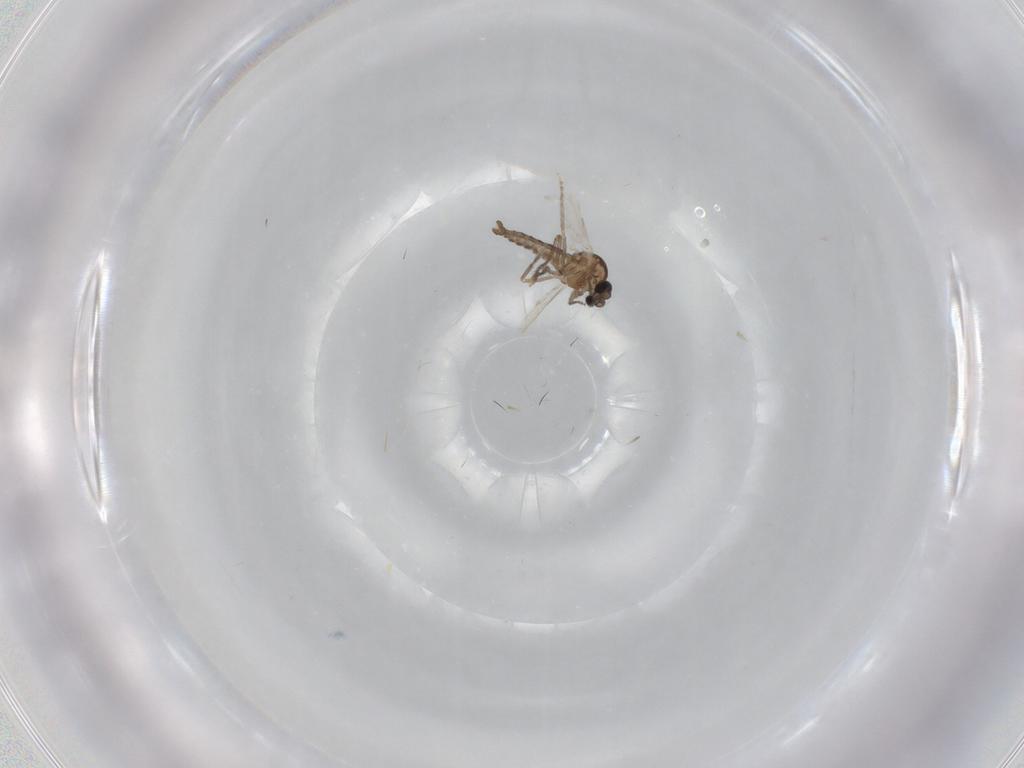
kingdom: Animalia
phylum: Arthropoda
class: Insecta
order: Diptera
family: Ceratopogonidae
